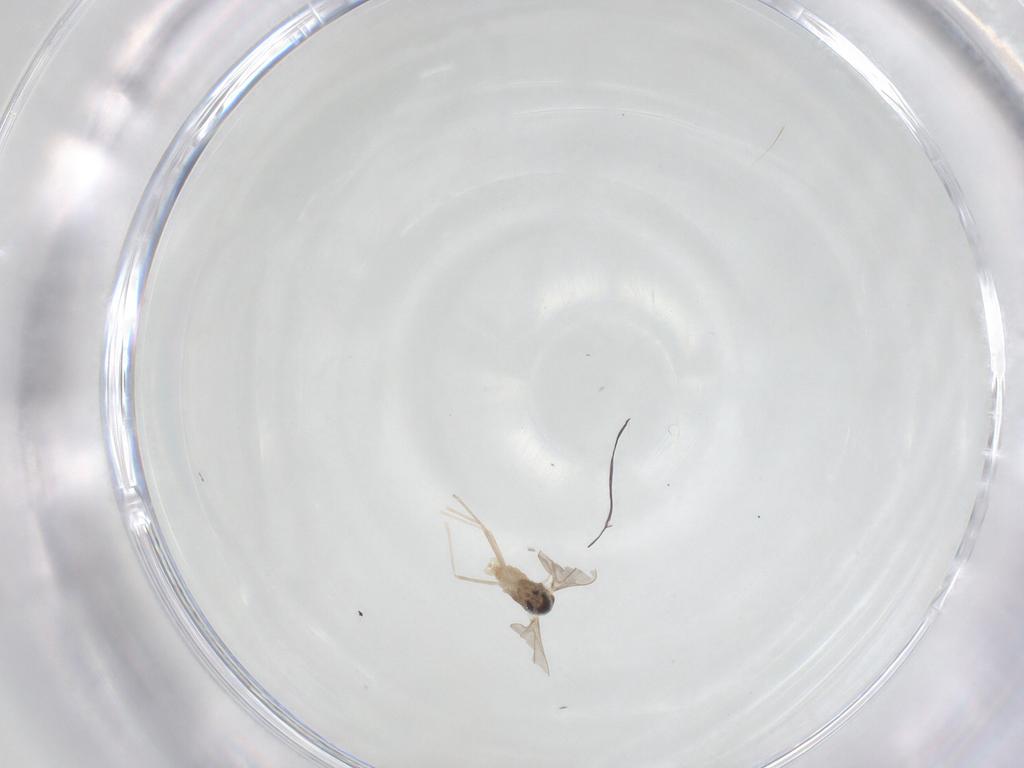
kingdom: Animalia
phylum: Arthropoda
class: Insecta
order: Diptera
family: Cecidomyiidae
